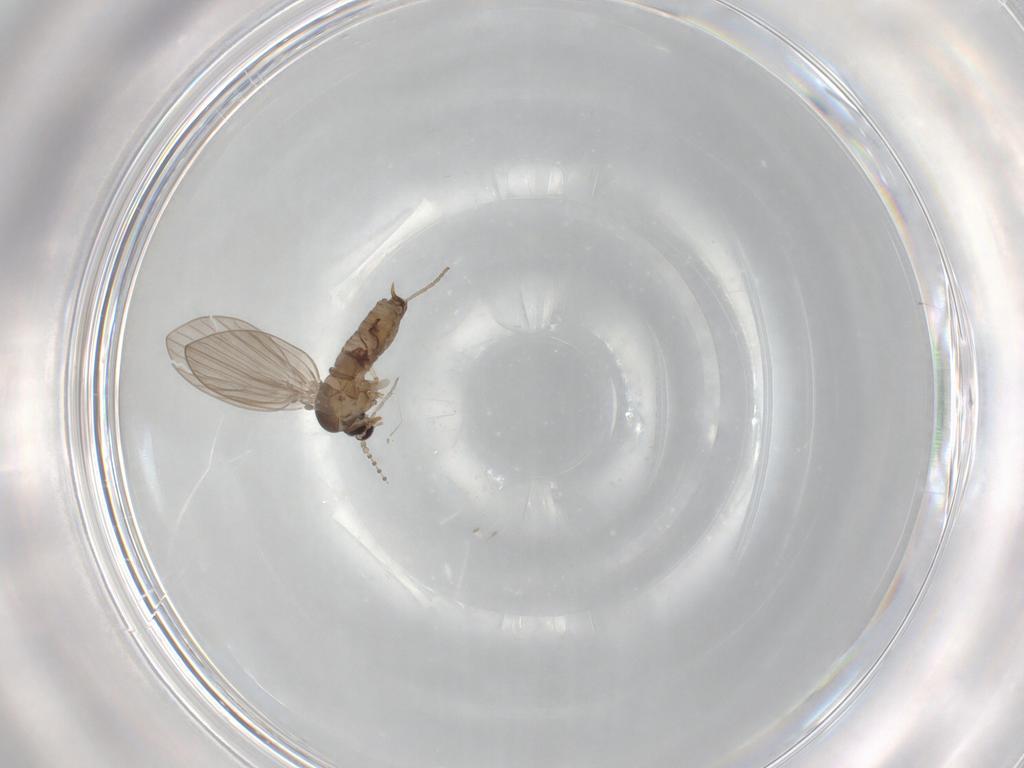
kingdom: Animalia
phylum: Arthropoda
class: Insecta
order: Diptera
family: Psychodidae
